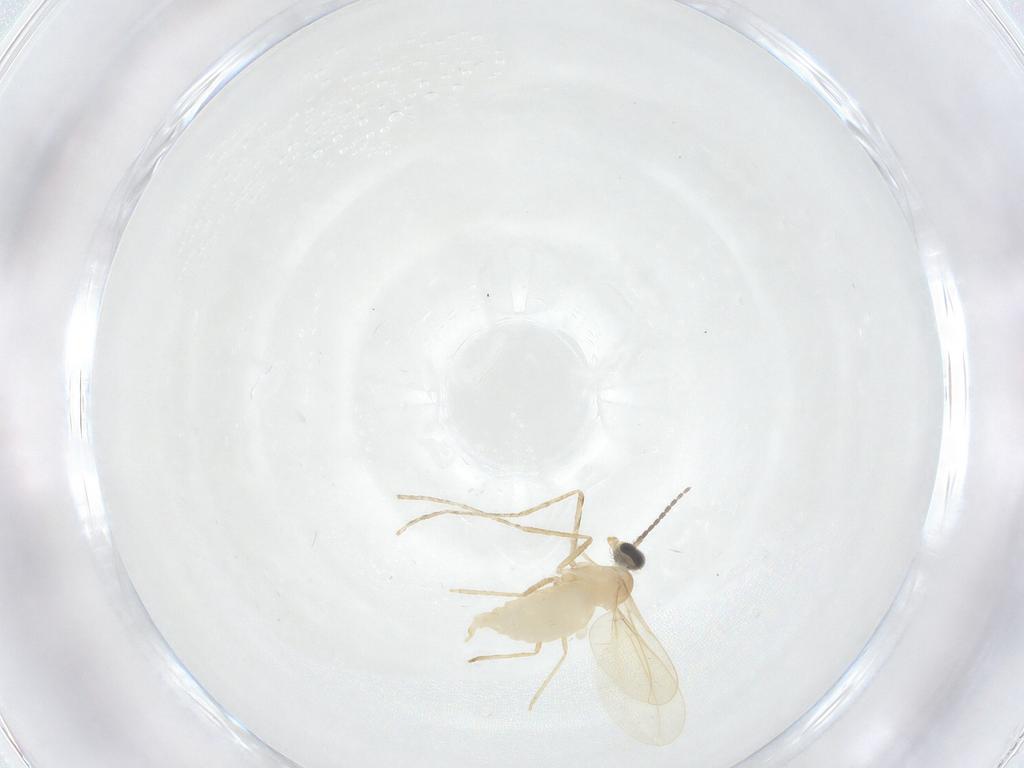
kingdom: Animalia
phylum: Arthropoda
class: Insecta
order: Diptera
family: Cecidomyiidae
